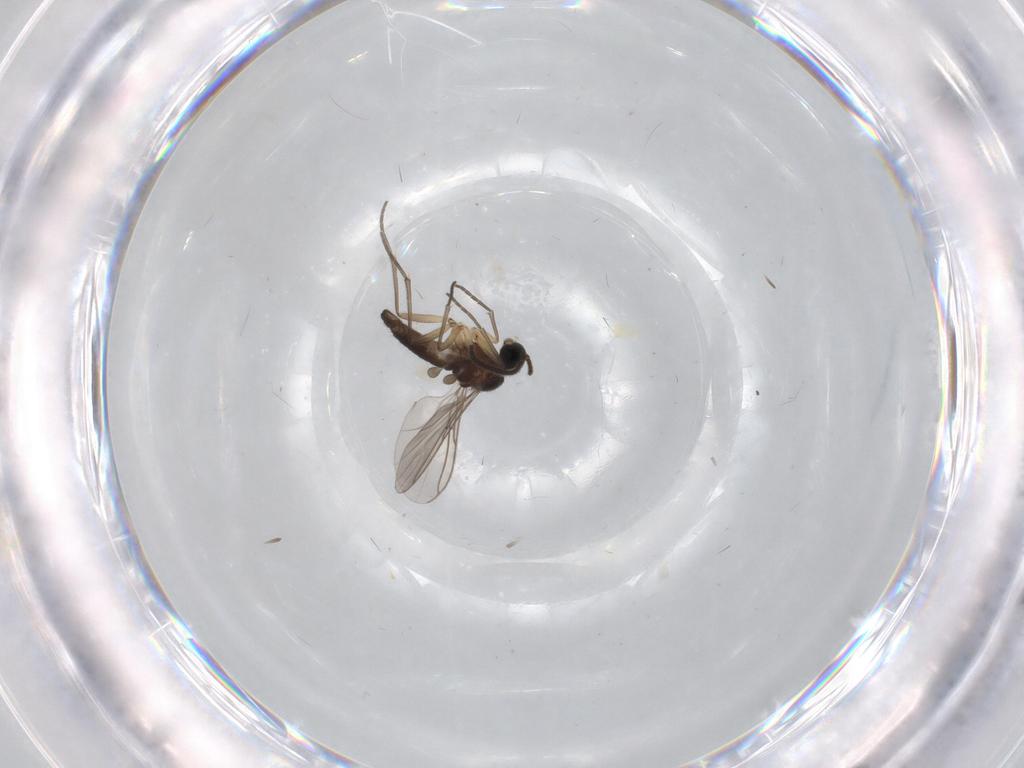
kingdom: Animalia
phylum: Arthropoda
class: Insecta
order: Diptera
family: Sciaridae
